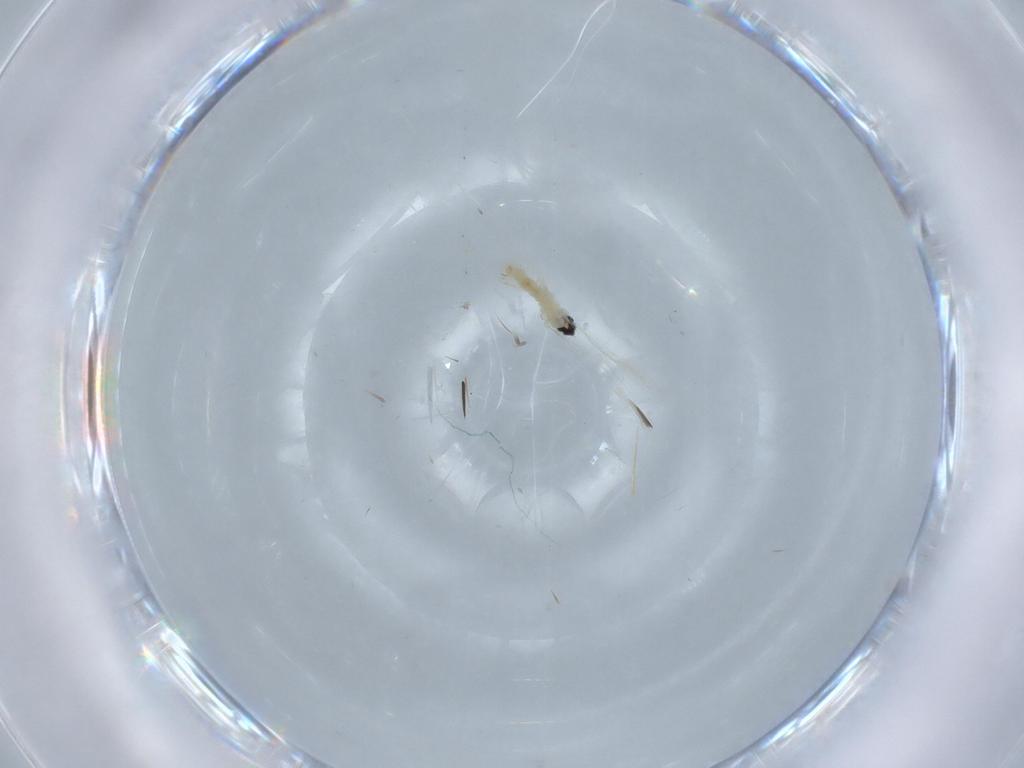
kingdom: Animalia
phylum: Arthropoda
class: Insecta
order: Diptera
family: Cecidomyiidae
